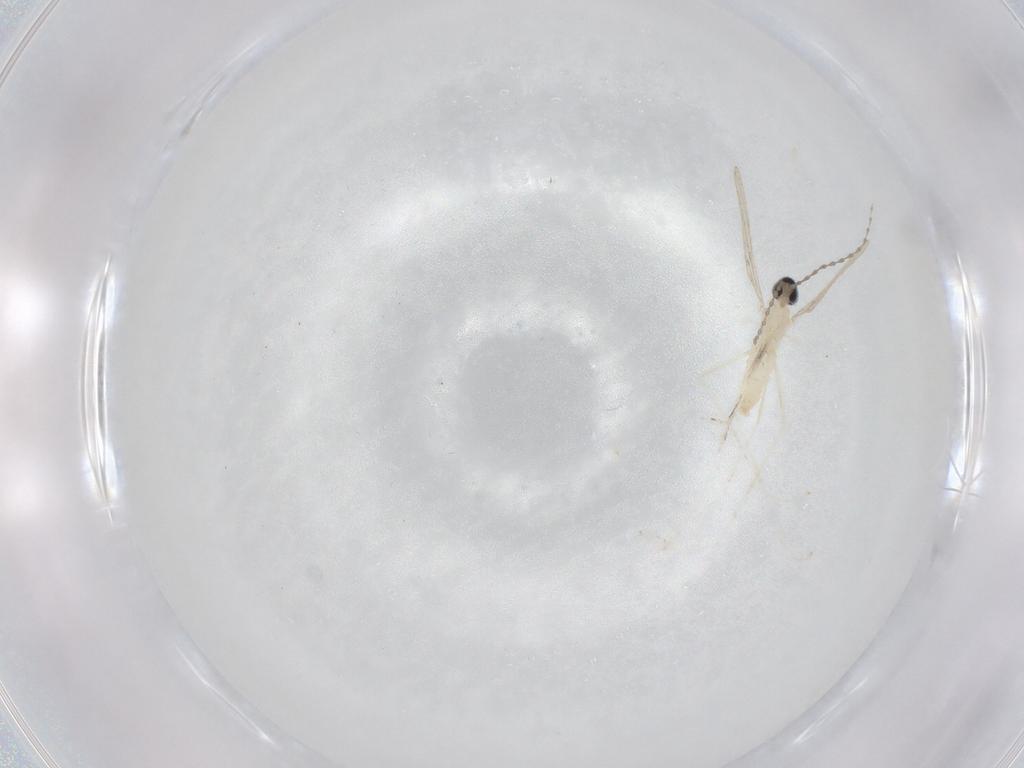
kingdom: Animalia
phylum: Arthropoda
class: Insecta
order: Diptera
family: Cecidomyiidae
